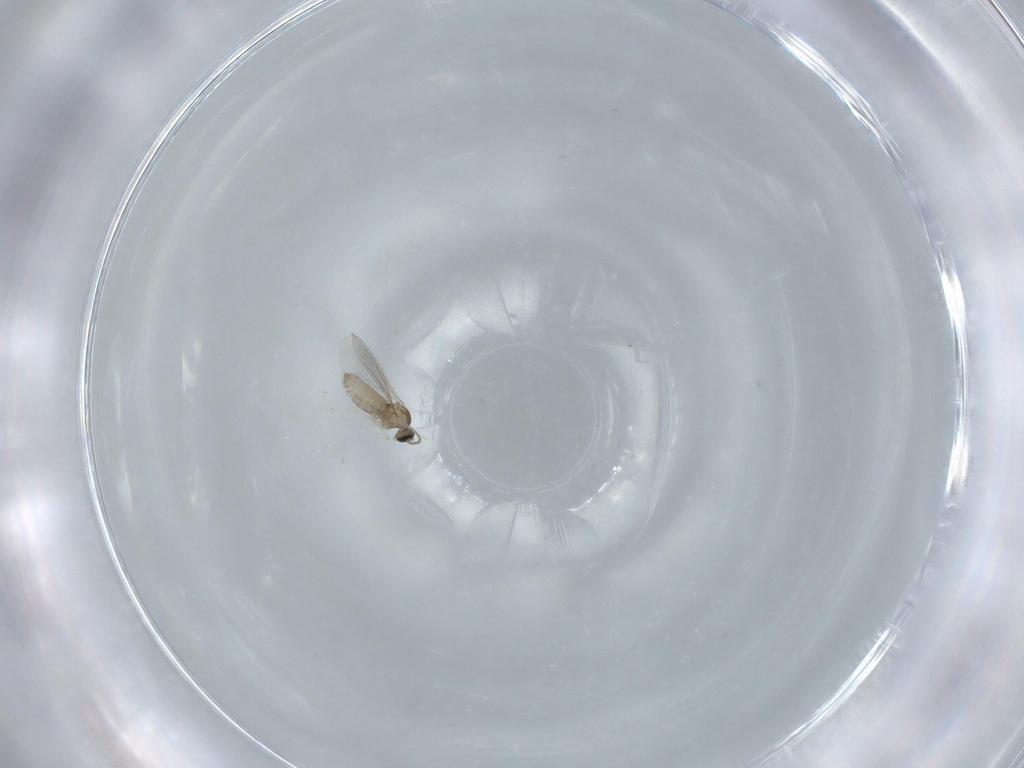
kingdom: Animalia
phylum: Arthropoda
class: Insecta
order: Diptera
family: Cecidomyiidae
